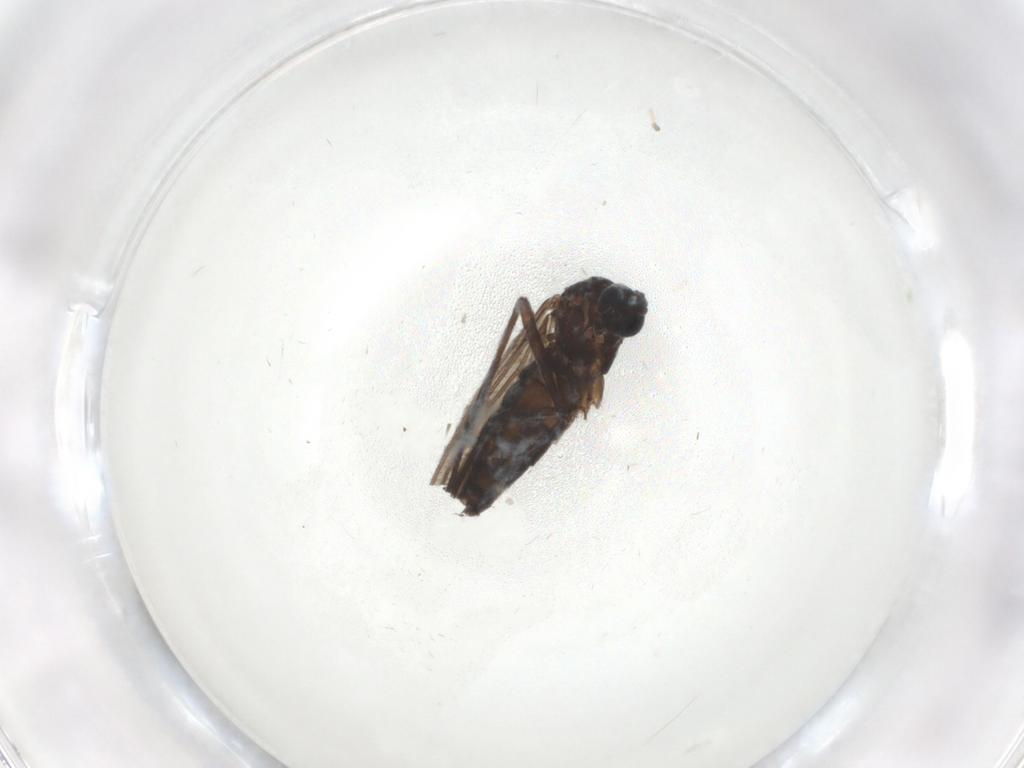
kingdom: Animalia
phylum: Arthropoda
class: Insecta
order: Diptera
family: Sciaridae
